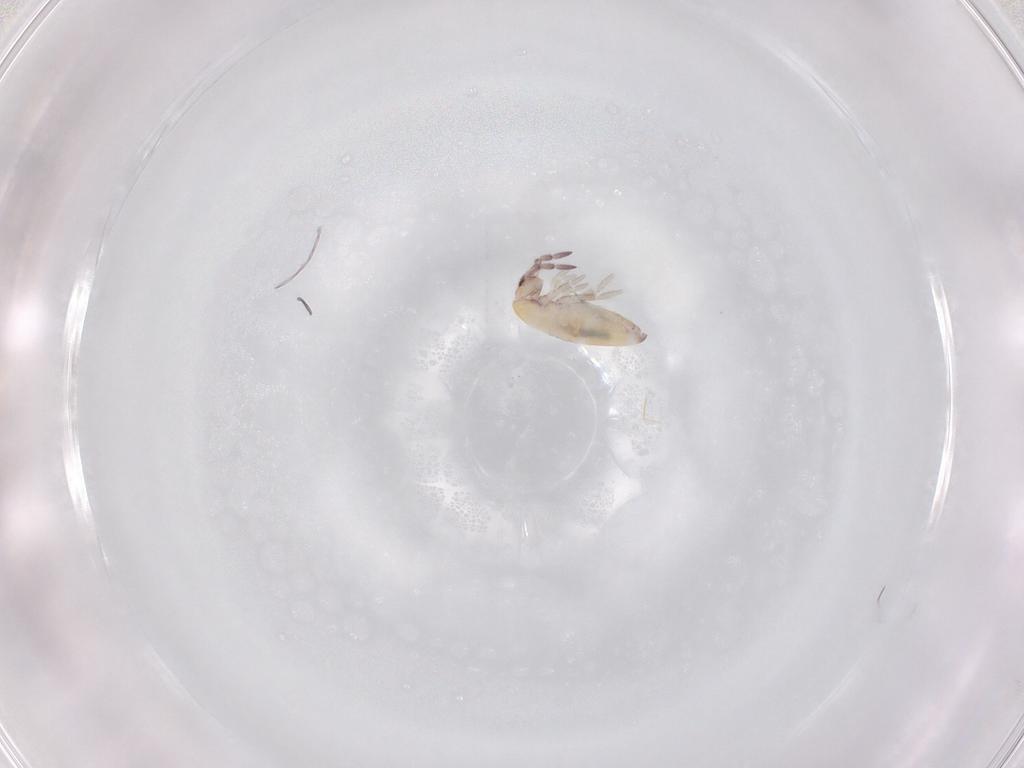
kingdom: Animalia
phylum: Arthropoda
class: Collembola
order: Entomobryomorpha
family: Entomobryidae
